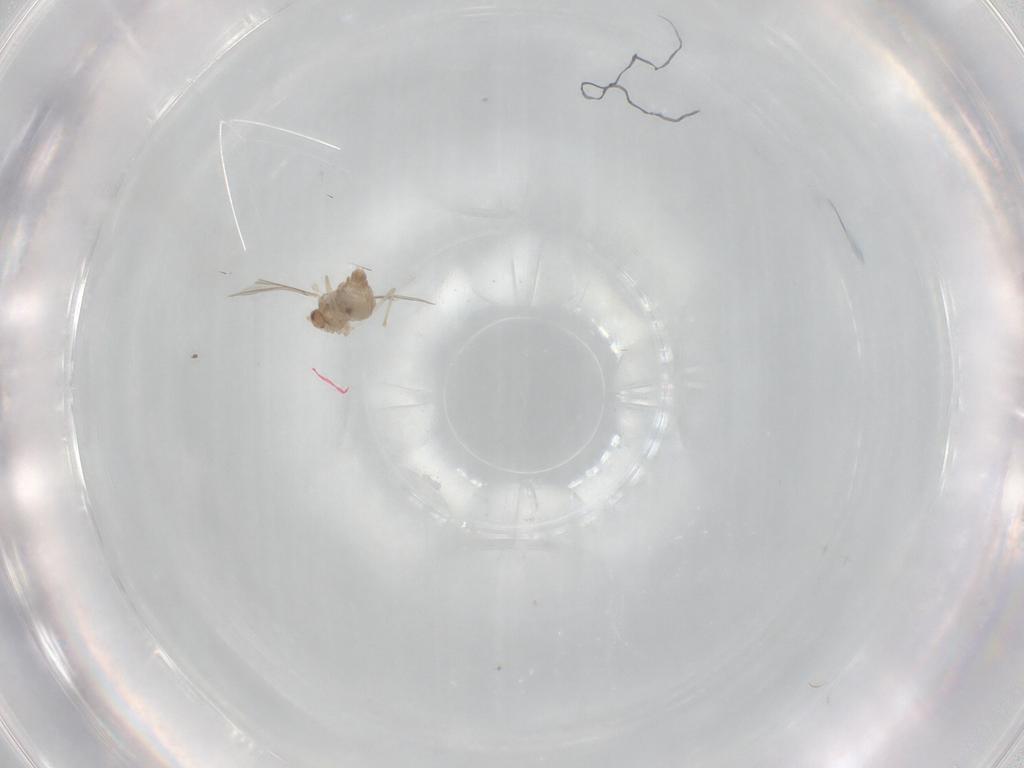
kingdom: Animalia
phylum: Arthropoda
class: Insecta
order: Diptera
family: Cecidomyiidae
